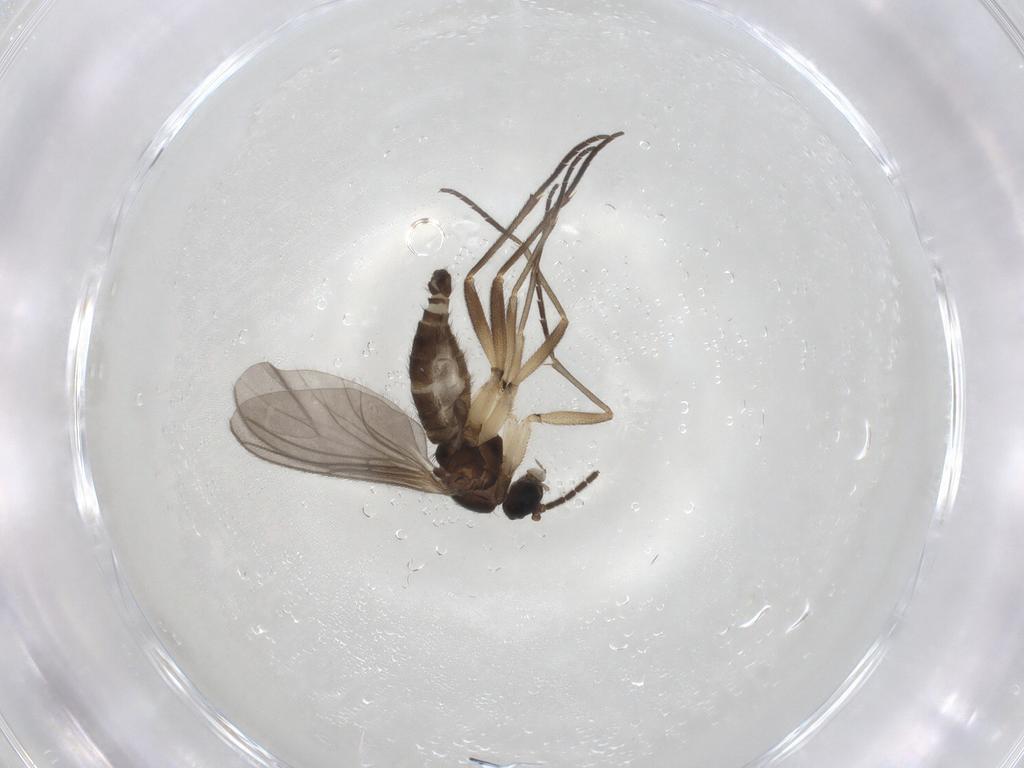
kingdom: Animalia
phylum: Arthropoda
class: Insecta
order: Diptera
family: Sciaridae
